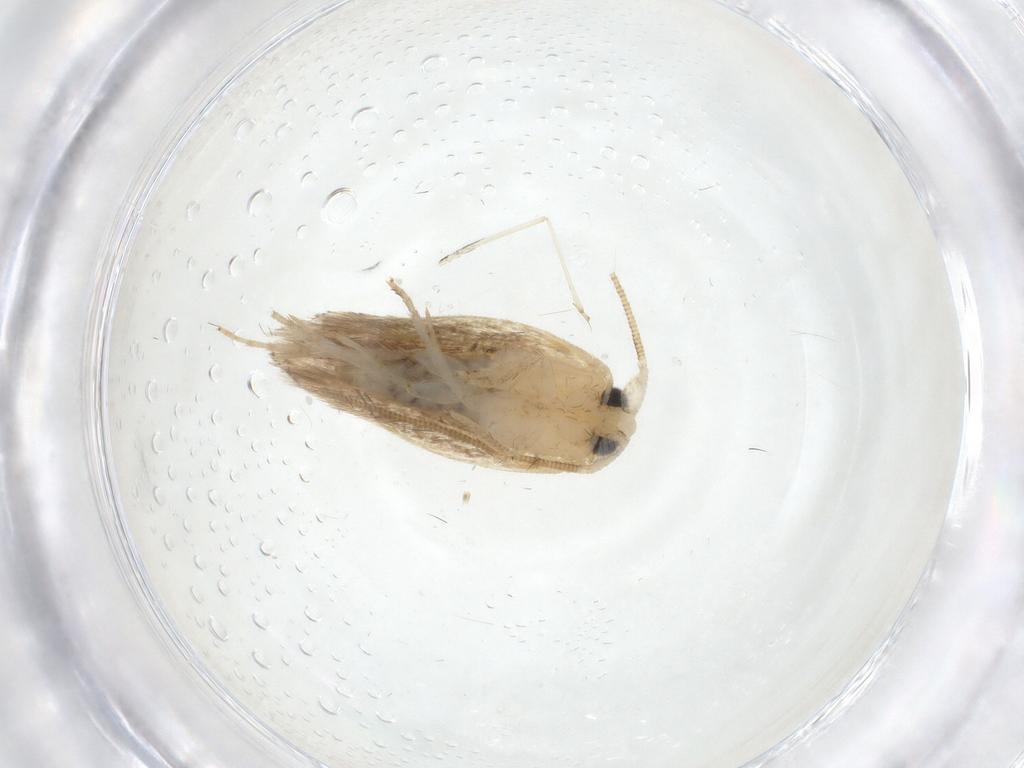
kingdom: Animalia
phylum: Arthropoda
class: Insecta
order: Lepidoptera
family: Opostegidae
